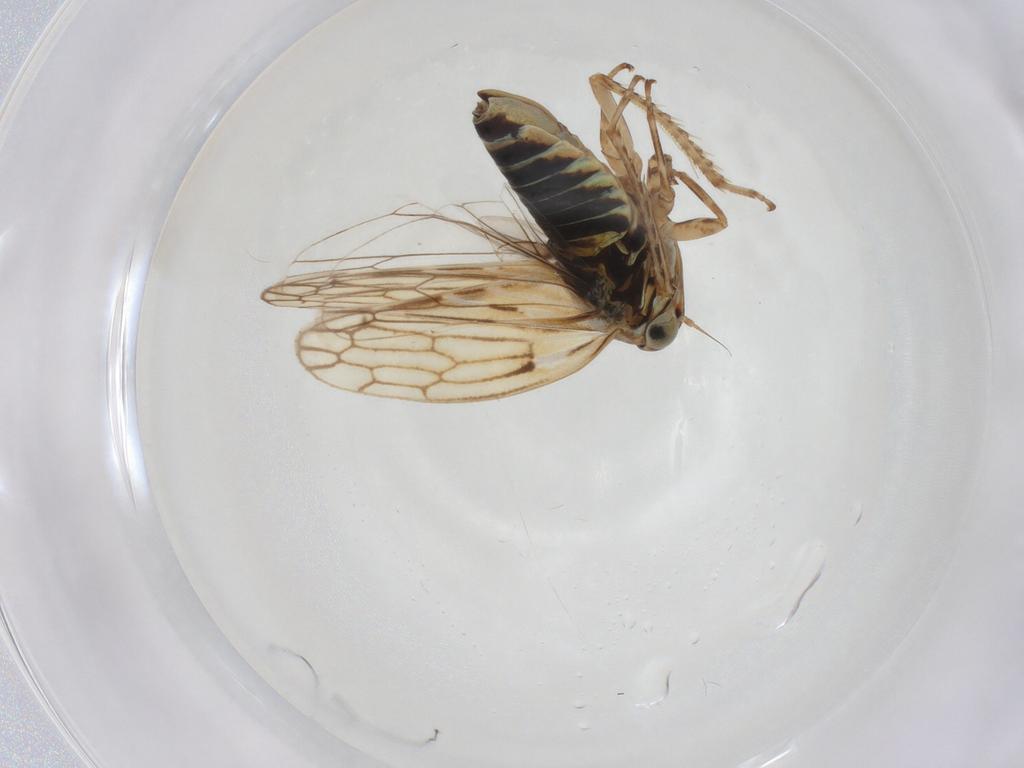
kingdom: Animalia
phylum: Arthropoda
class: Insecta
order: Hemiptera
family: Cicadellidae
